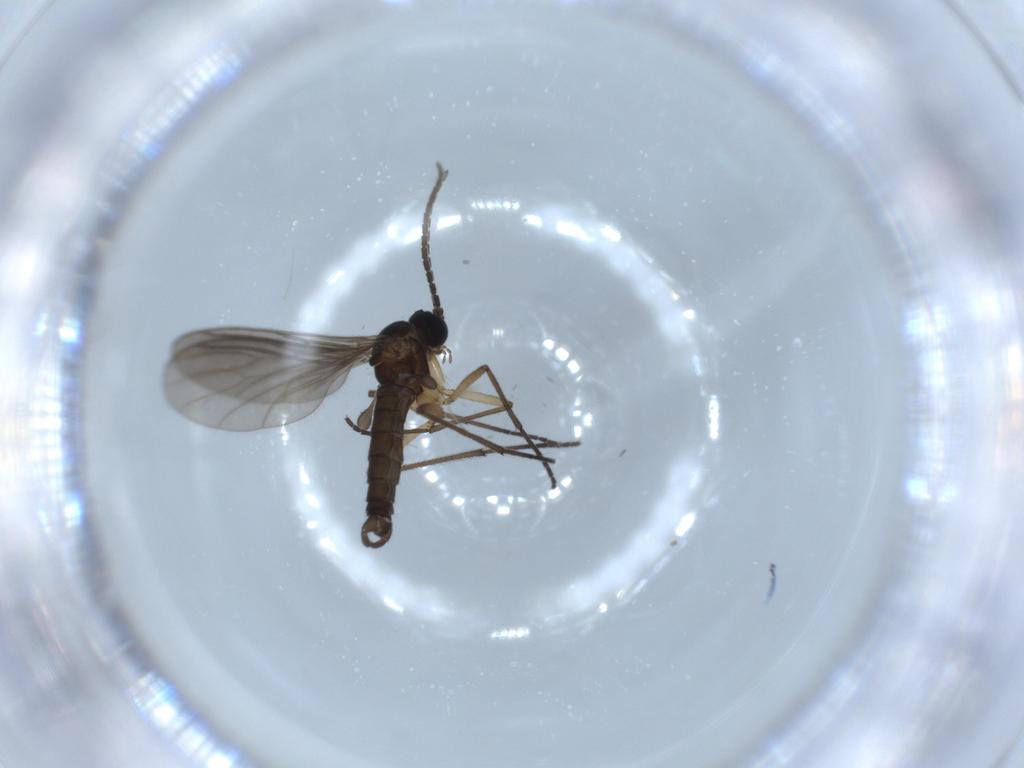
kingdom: Animalia
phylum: Arthropoda
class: Insecta
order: Diptera
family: Sciaridae
